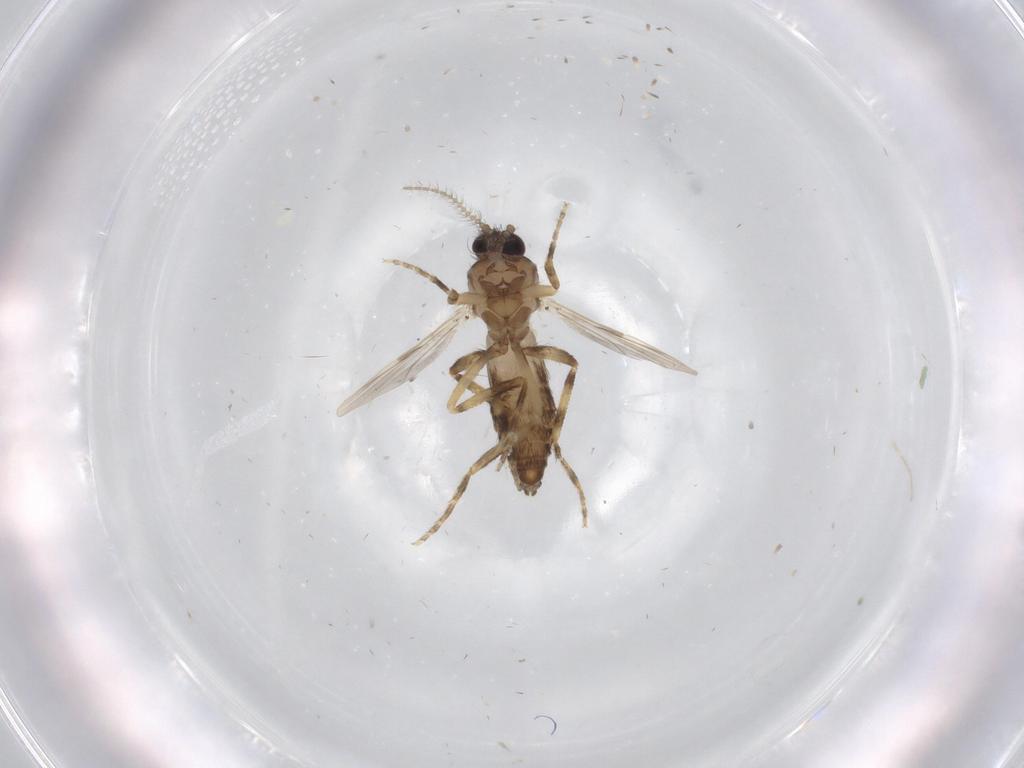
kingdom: Animalia
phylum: Arthropoda
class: Insecta
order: Diptera
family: Ceratopogonidae
